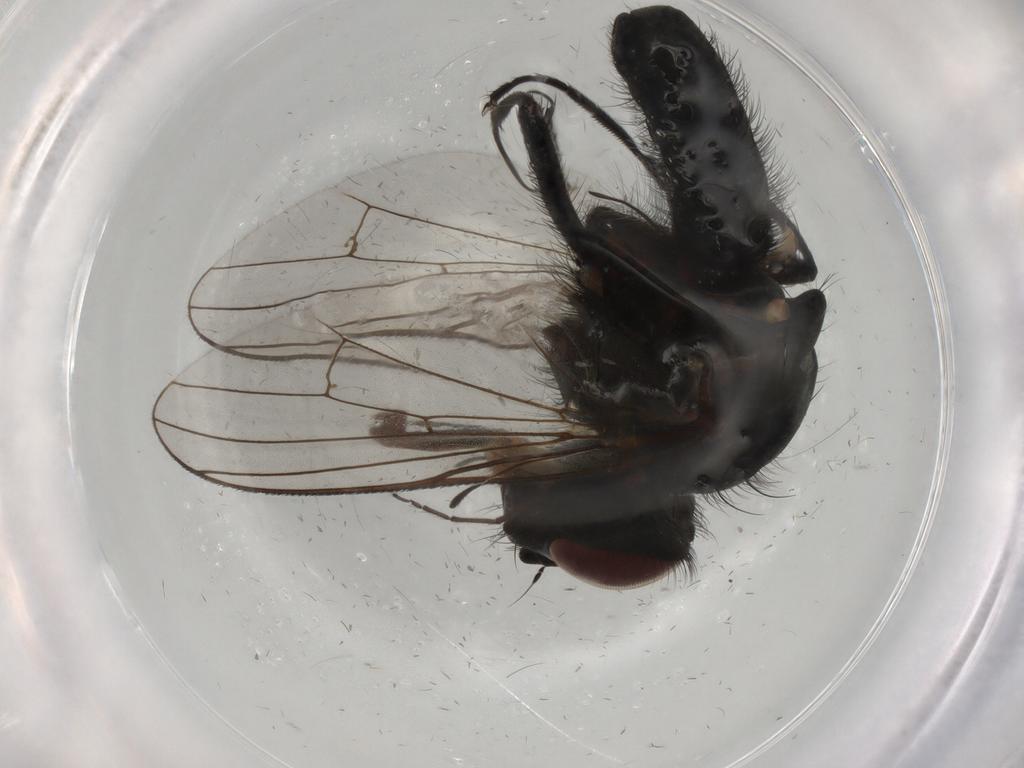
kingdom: Animalia
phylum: Arthropoda
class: Insecta
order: Diptera
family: Anthomyiidae
